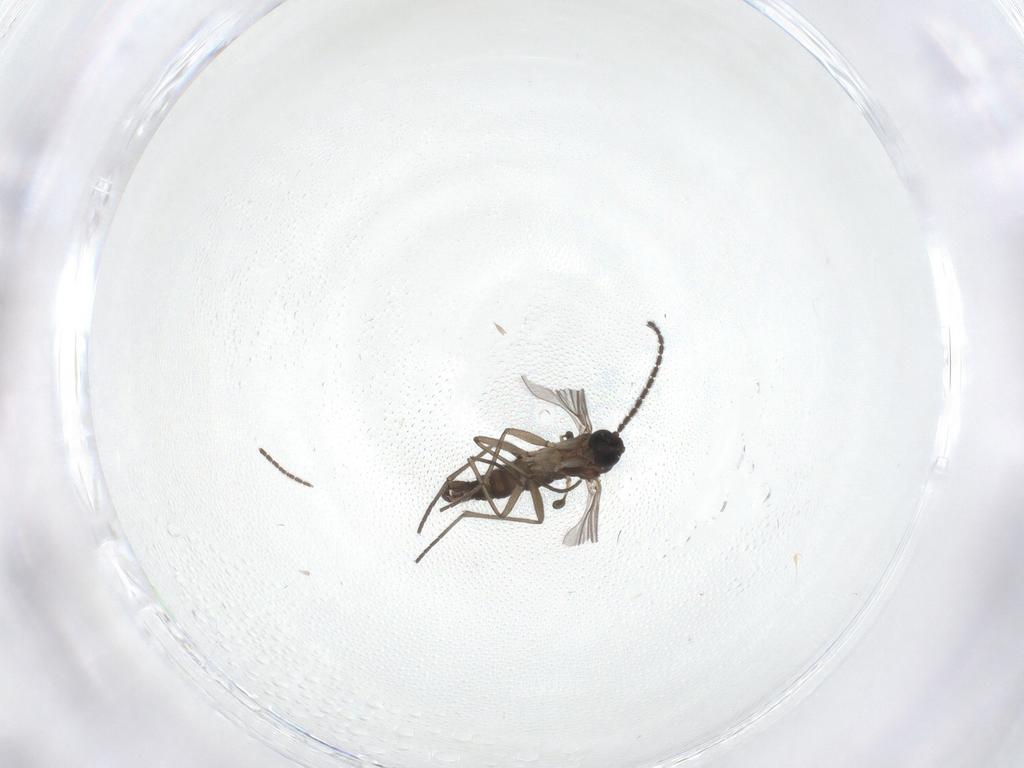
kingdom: Animalia
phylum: Arthropoda
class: Insecta
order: Diptera
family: Sciaridae
